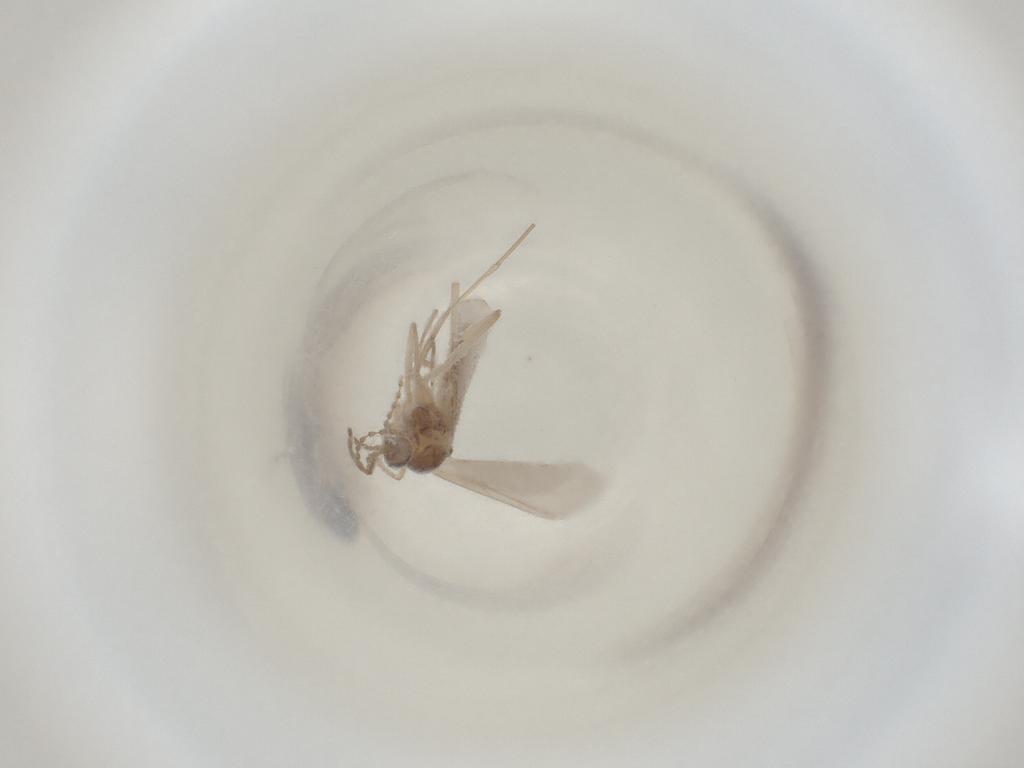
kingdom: Animalia
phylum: Arthropoda
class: Insecta
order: Diptera
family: Cecidomyiidae
